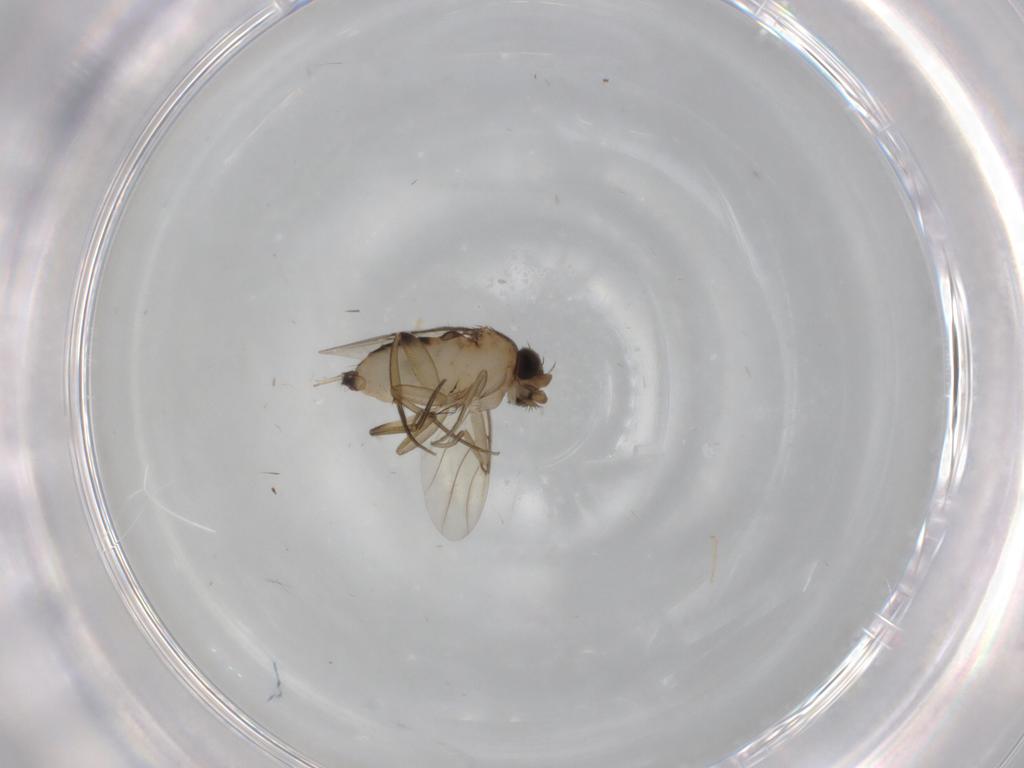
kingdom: Animalia
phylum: Arthropoda
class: Insecta
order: Diptera
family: Phoridae
